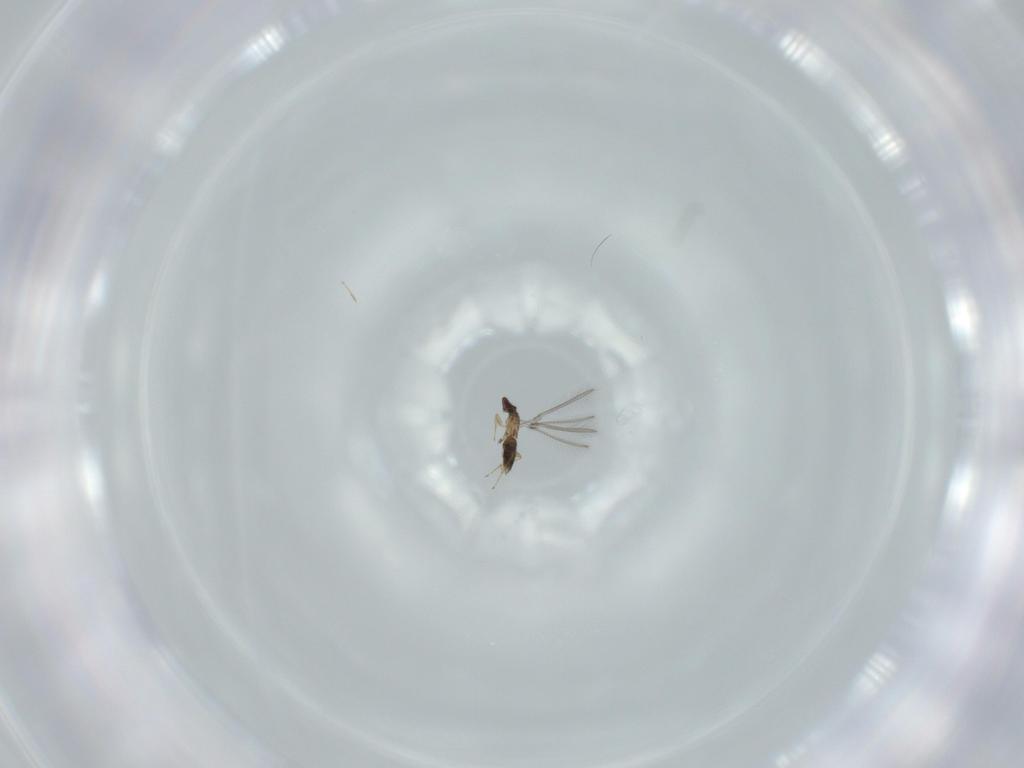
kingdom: Animalia
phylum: Arthropoda
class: Insecta
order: Hymenoptera
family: Mymaridae
